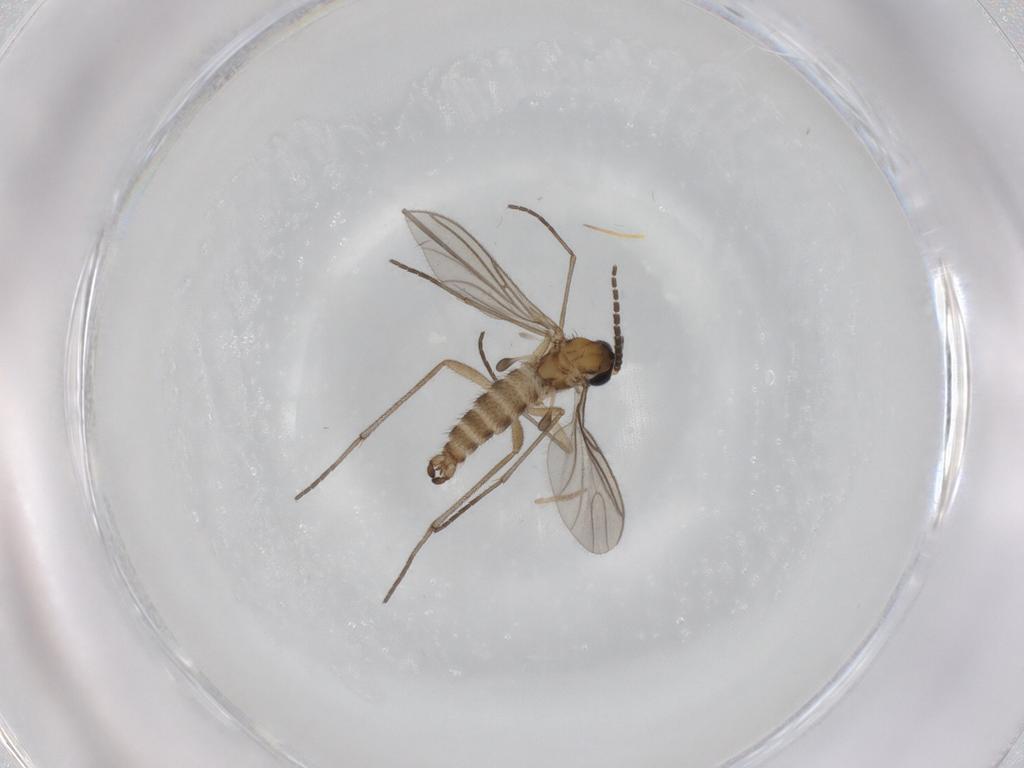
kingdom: Animalia
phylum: Arthropoda
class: Insecta
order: Diptera
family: Sciaridae
